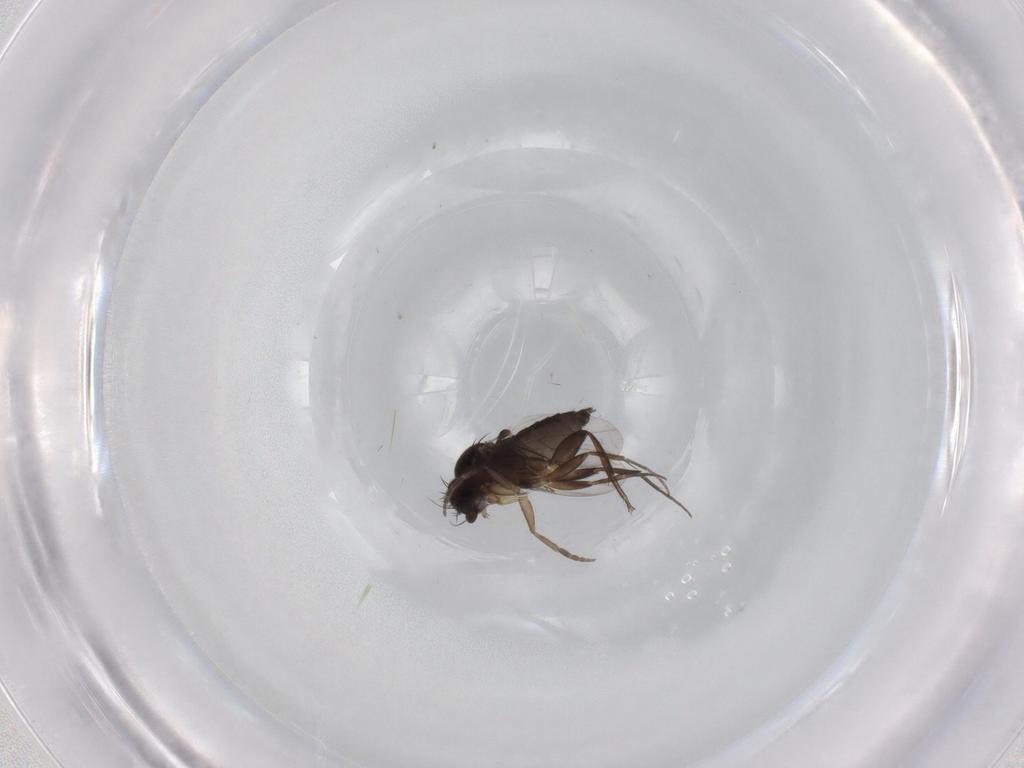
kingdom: Animalia
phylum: Arthropoda
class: Insecta
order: Diptera
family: Phoridae
